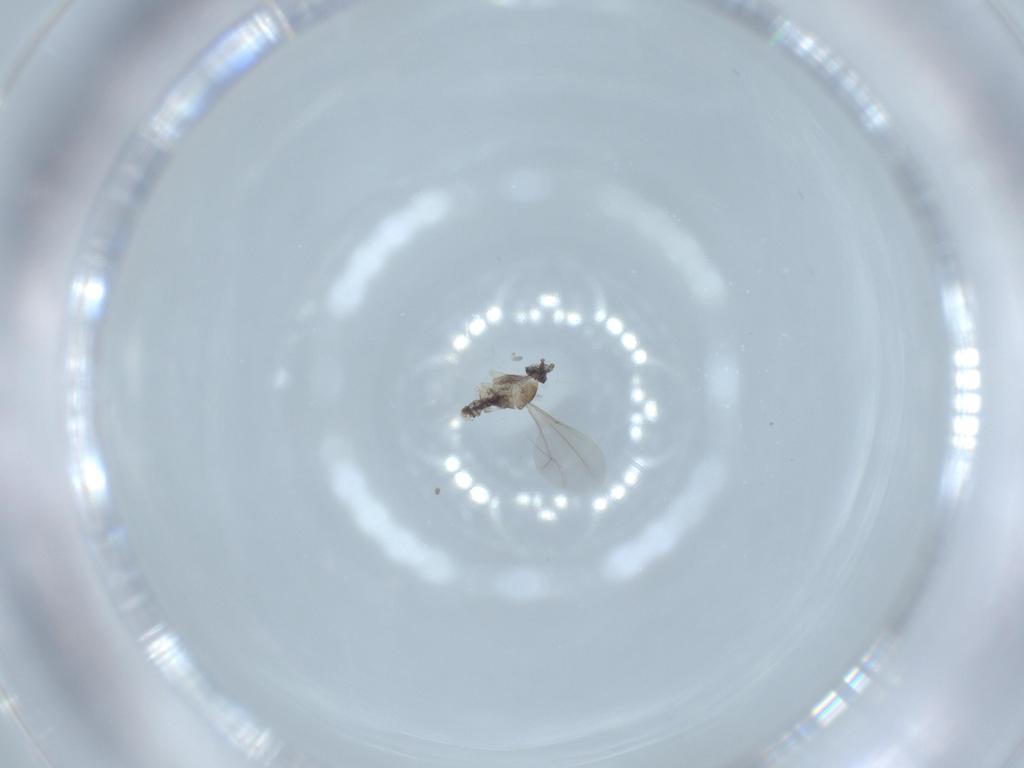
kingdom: Animalia
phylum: Arthropoda
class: Insecta
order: Diptera
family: Cecidomyiidae
